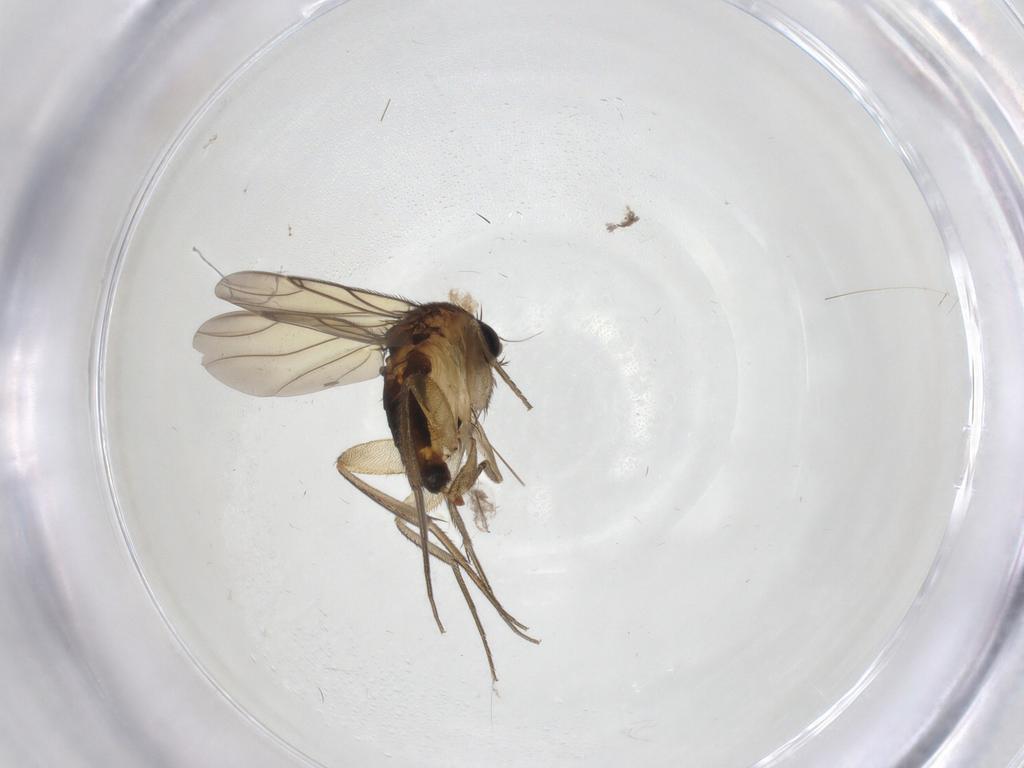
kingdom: Animalia
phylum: Arthropoda
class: Insecta
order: Diptera
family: Psychodidae
